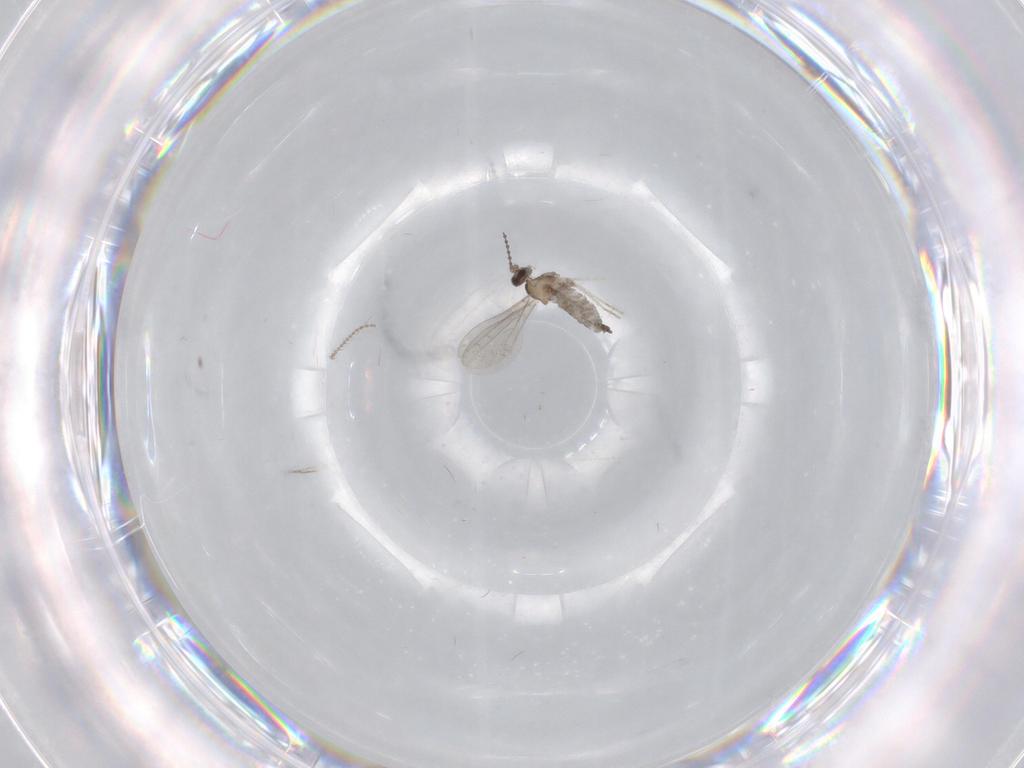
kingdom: Animalia
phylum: Arthropoda
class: Insecta
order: Diptera
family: Cecidomyiidae
